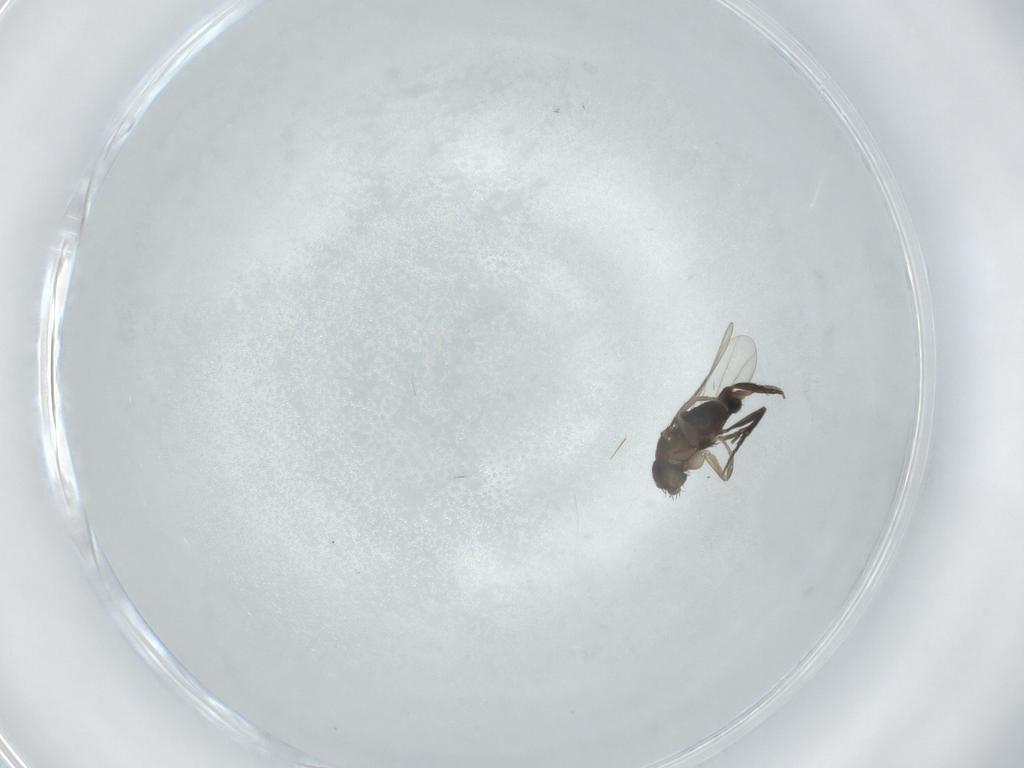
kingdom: Animalia
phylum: Arthropoda
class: Insecta
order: Diptera
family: Phoridae
